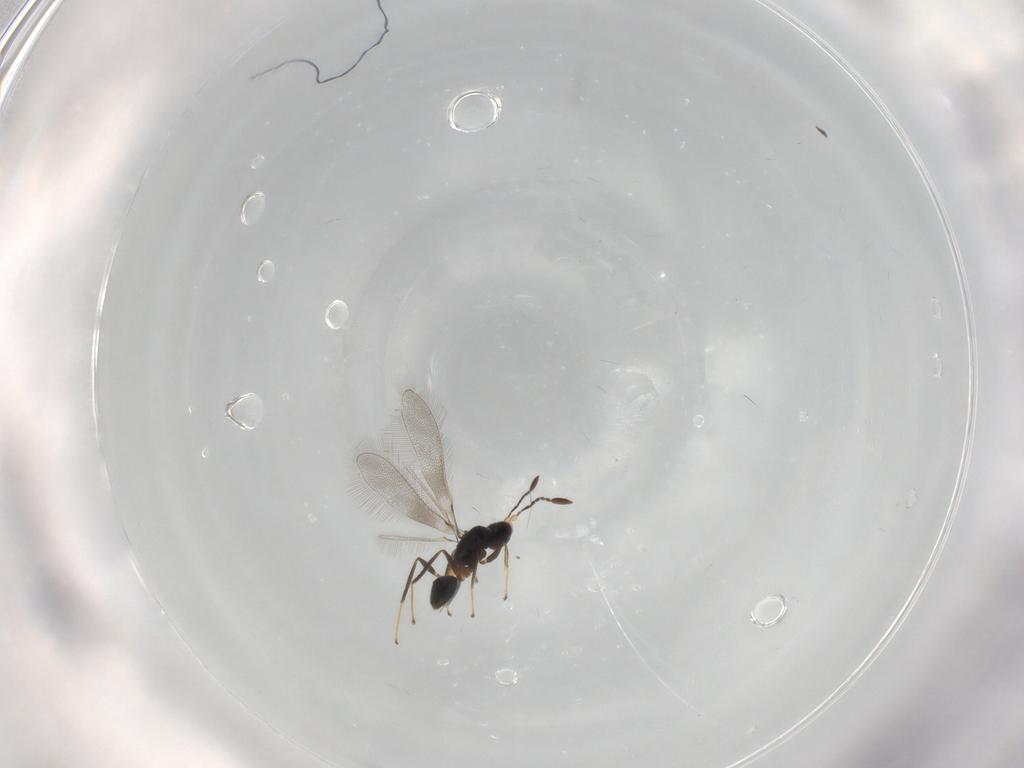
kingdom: Animalia
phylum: Arthropoda
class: Insecta
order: Hymenoptera
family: Mymaridae
